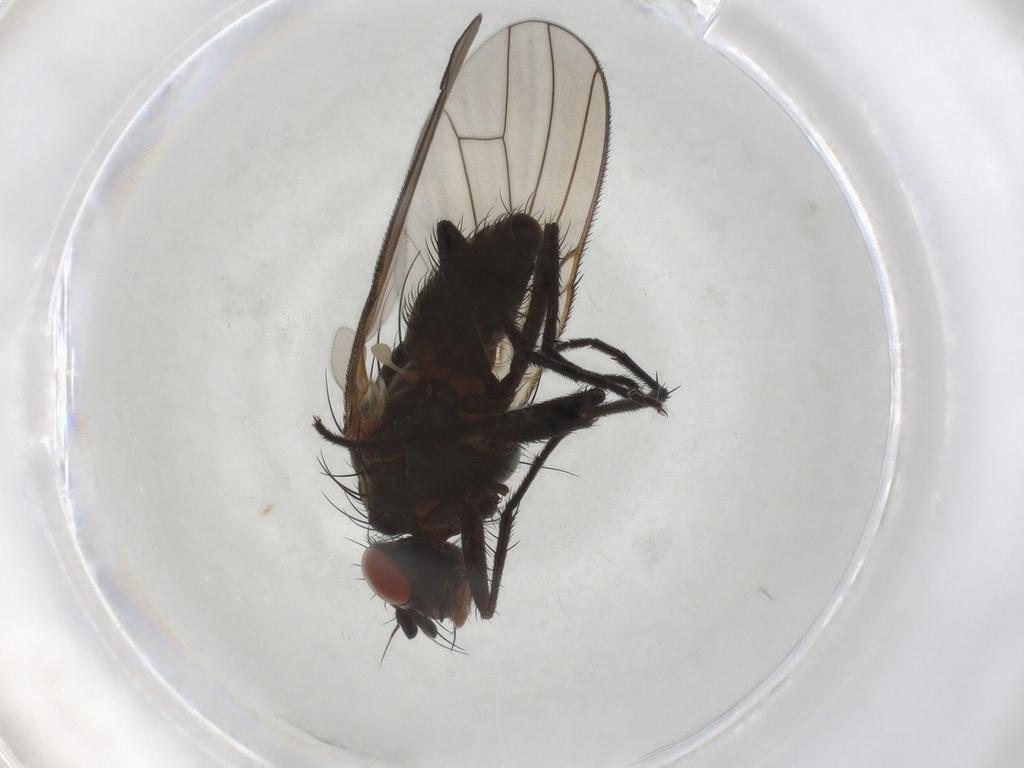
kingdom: Animalia
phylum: Arthropoda
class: Insecta
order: Diptera
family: Anthomyiidae
